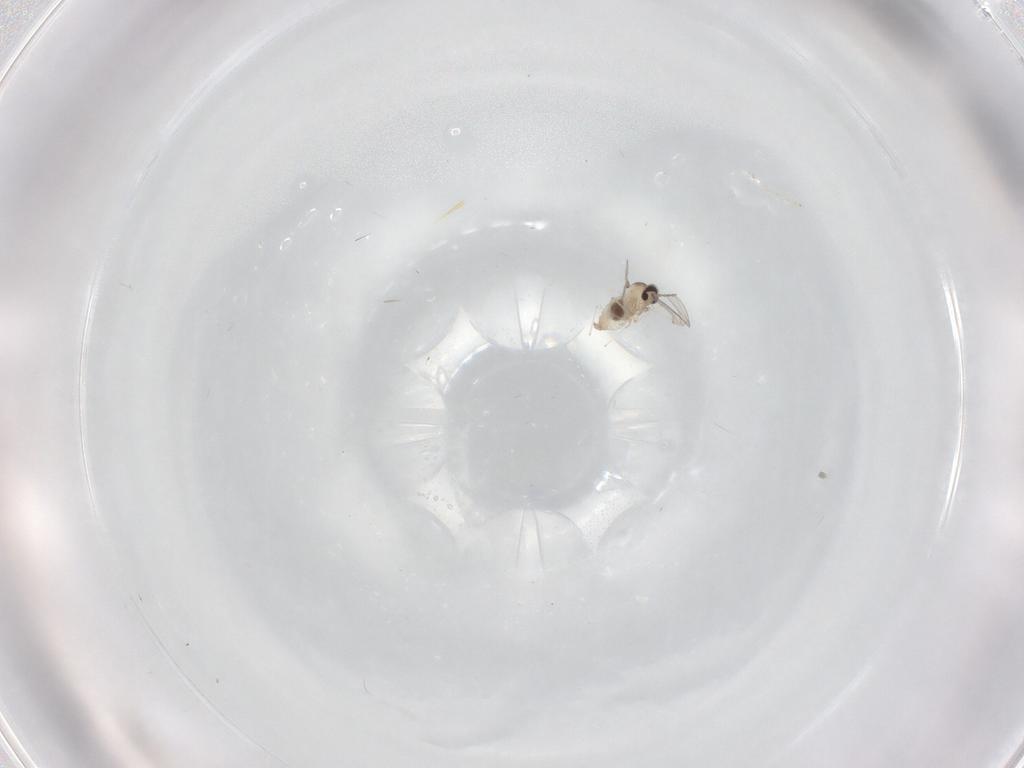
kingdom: Animalia
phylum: Arthropoda
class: Insecta
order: Diptera
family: Cecidomyiidae
